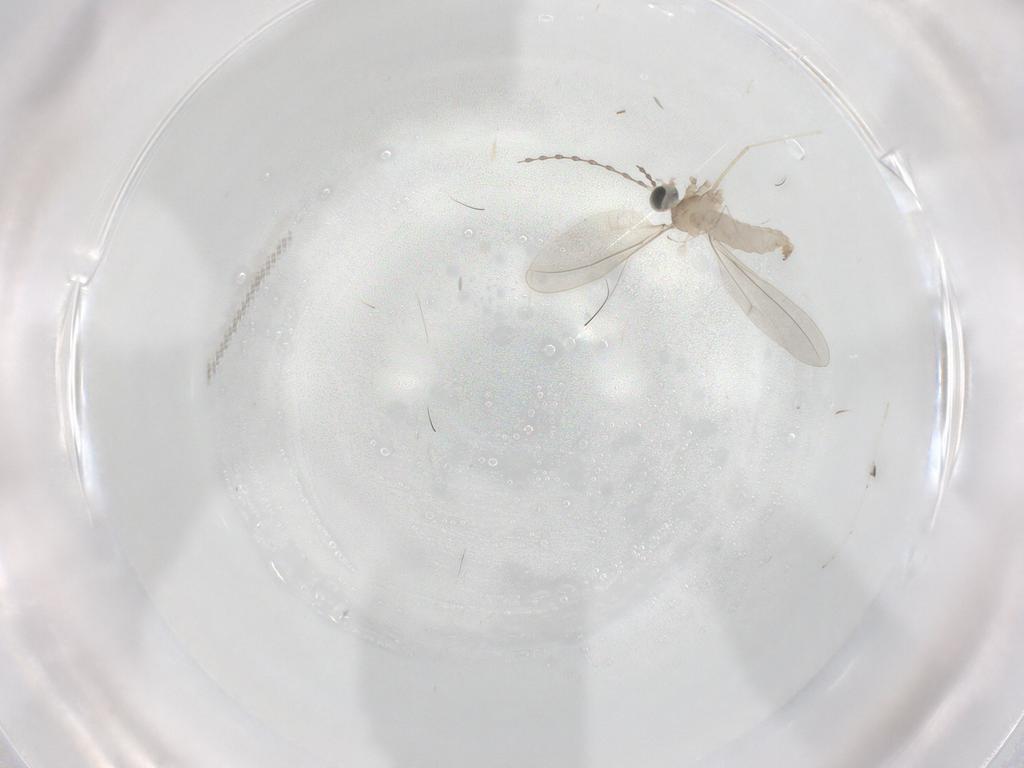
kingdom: Animalia
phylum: Arthropoda
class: Insecta
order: Diptera
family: Cecidomyiidae
